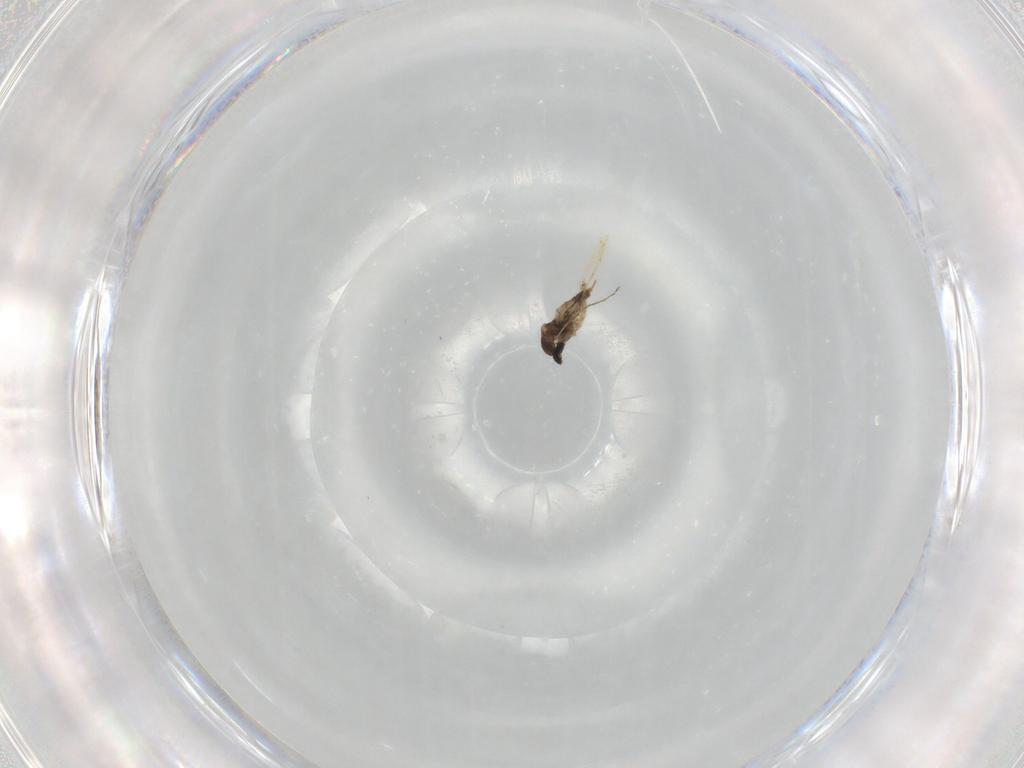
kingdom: Animalia
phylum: Arthropoda
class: Insecta
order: Diptera
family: Cecidomyiidae
